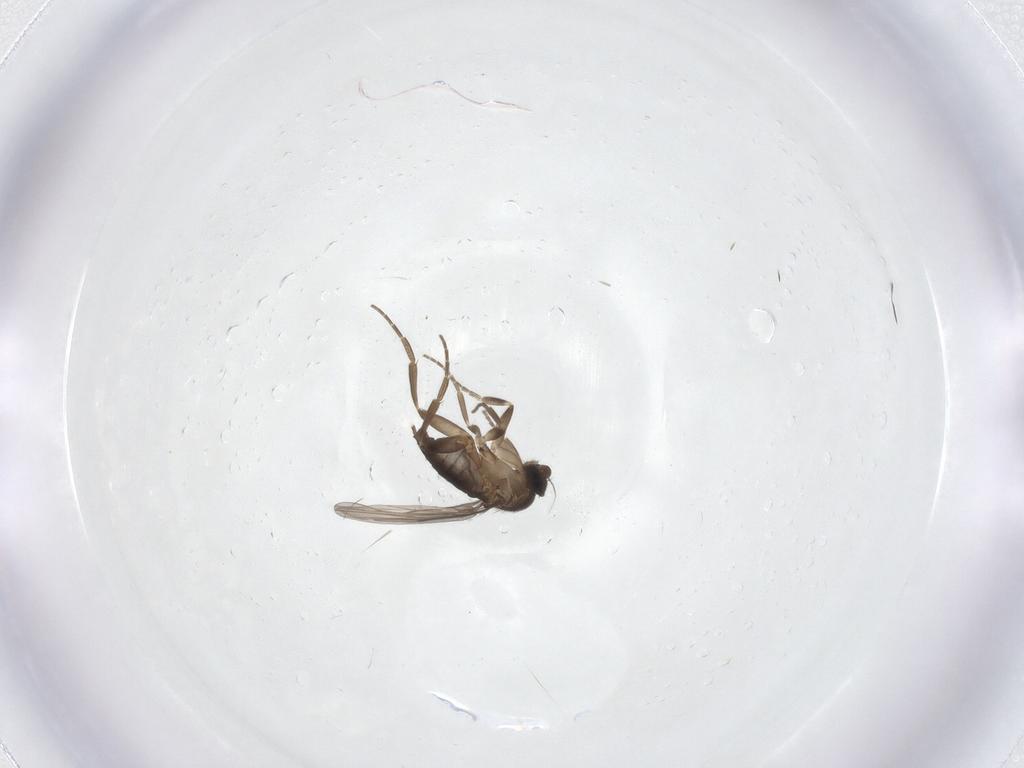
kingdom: Animalia
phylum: Arthropoda
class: Insecta
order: Diptera
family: Phoridae
